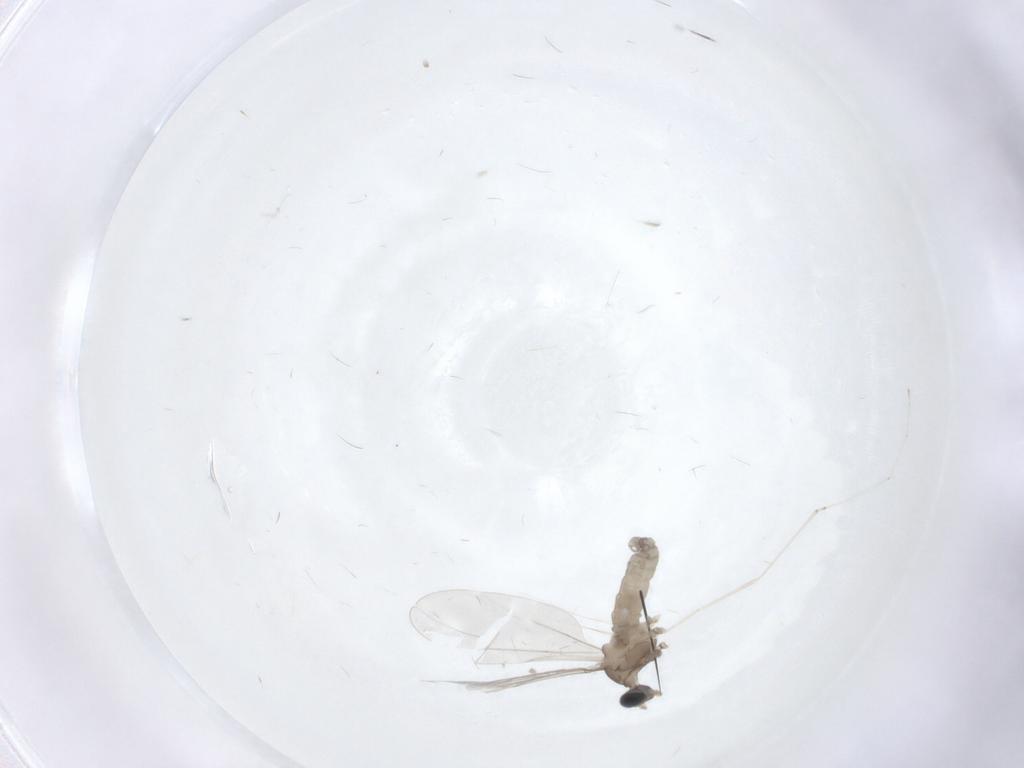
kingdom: Animalia
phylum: Arthropoda
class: Insecta
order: Diptera
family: Cecidomyiidae
